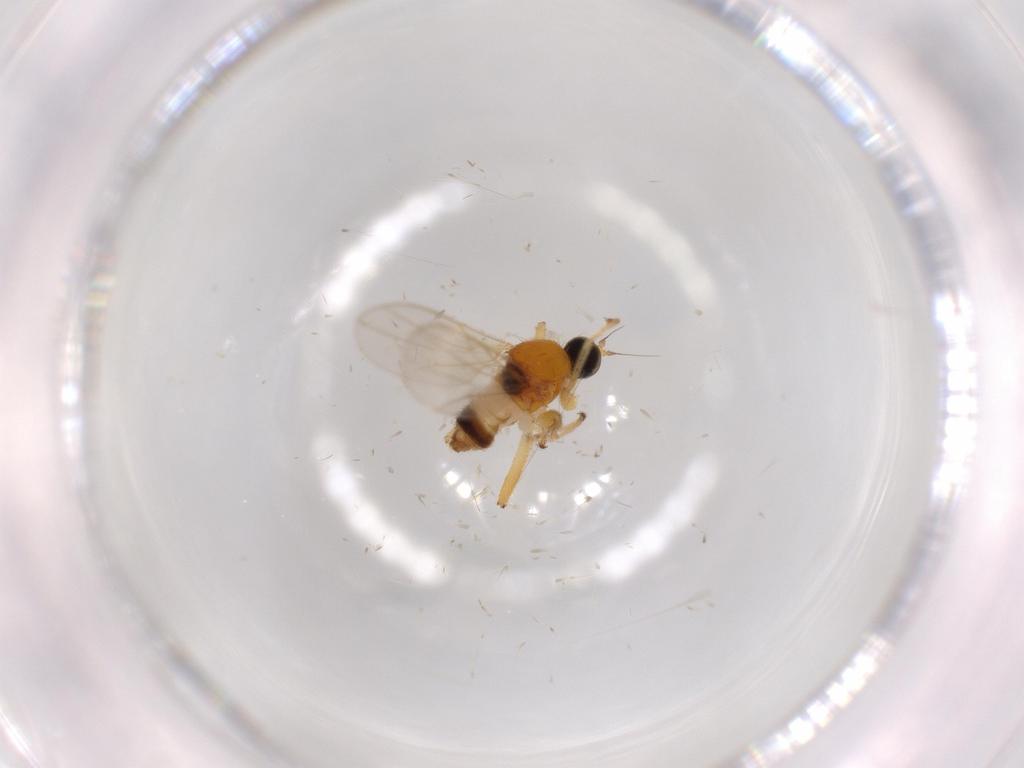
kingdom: Animalia
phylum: Arthropoda
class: Insecta
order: Diptera
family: Hybotidae
